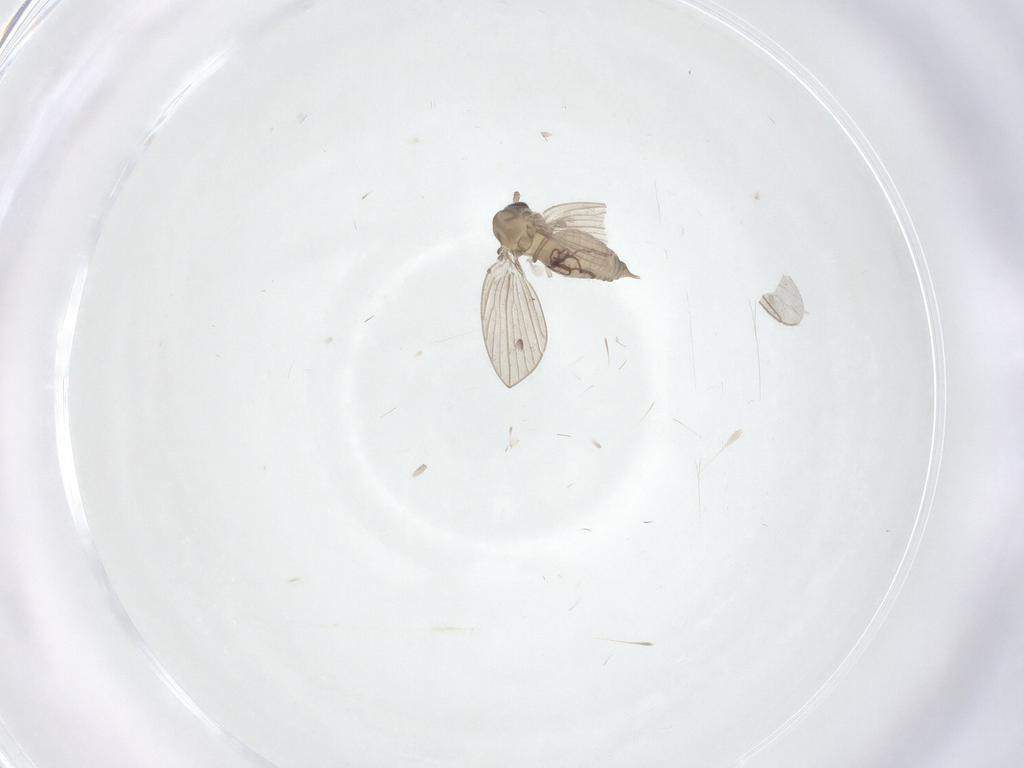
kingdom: Animalia
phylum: Arthropoda
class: Insecta
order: Diptera
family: Psychodidae
